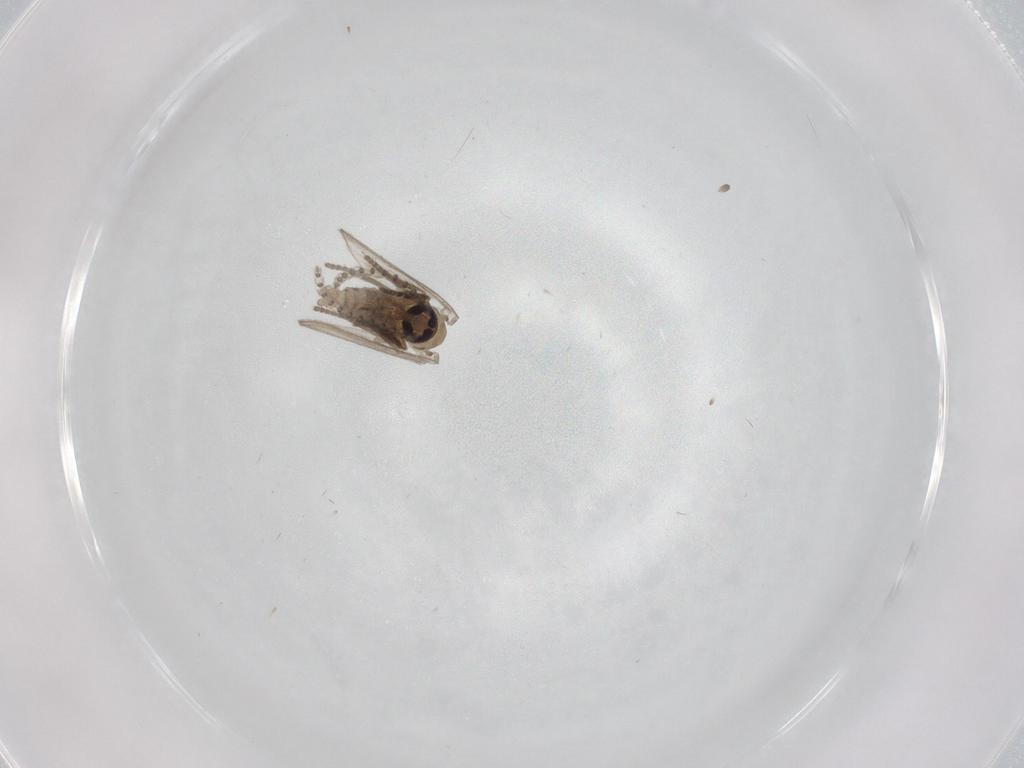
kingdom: Animalia
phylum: Arthropoda
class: Insecta
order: Diptera
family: Psychodidae
